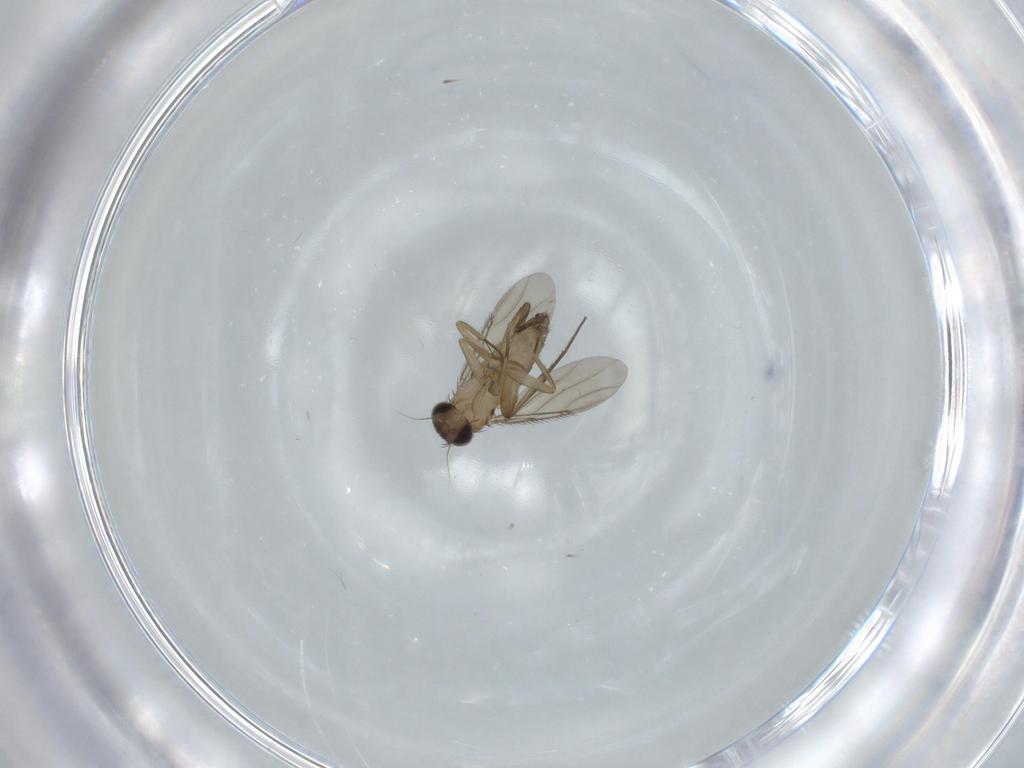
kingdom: Animalia
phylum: Arthropoda
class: Insecta
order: Diptera
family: Phoridae
